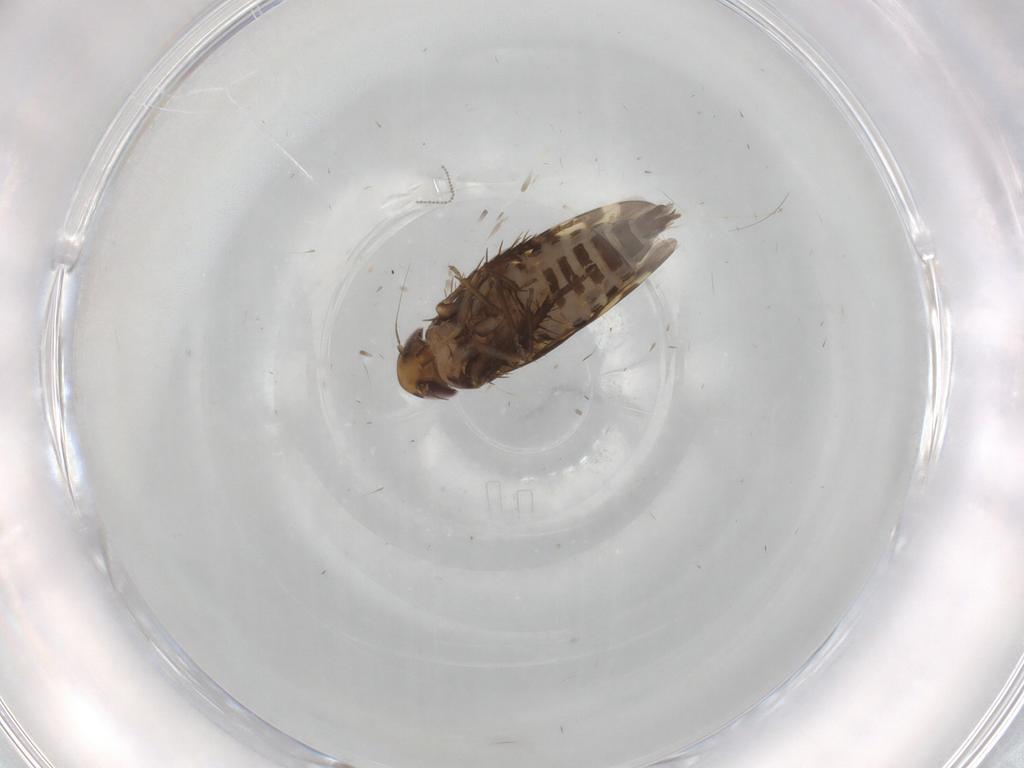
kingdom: Animalia
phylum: Arthropoda
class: Insecta
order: Hemiptera
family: Cicadellidae
